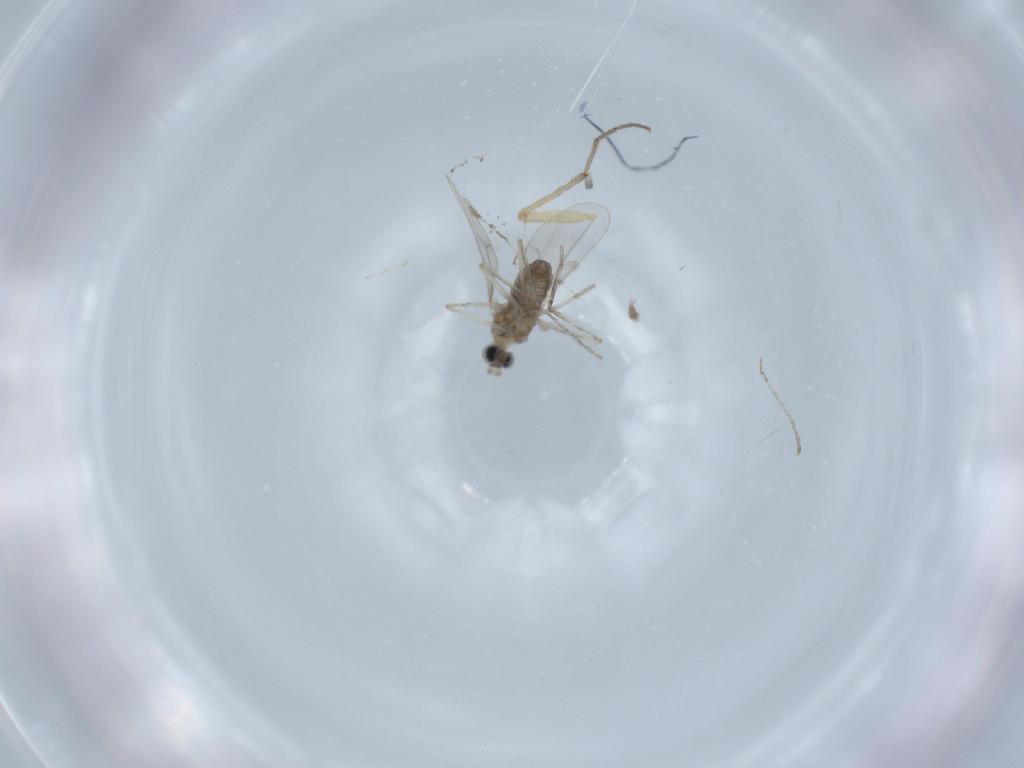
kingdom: Animalia
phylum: Arthropoda
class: Insecta
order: Diptera
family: Cecidomyiidae
